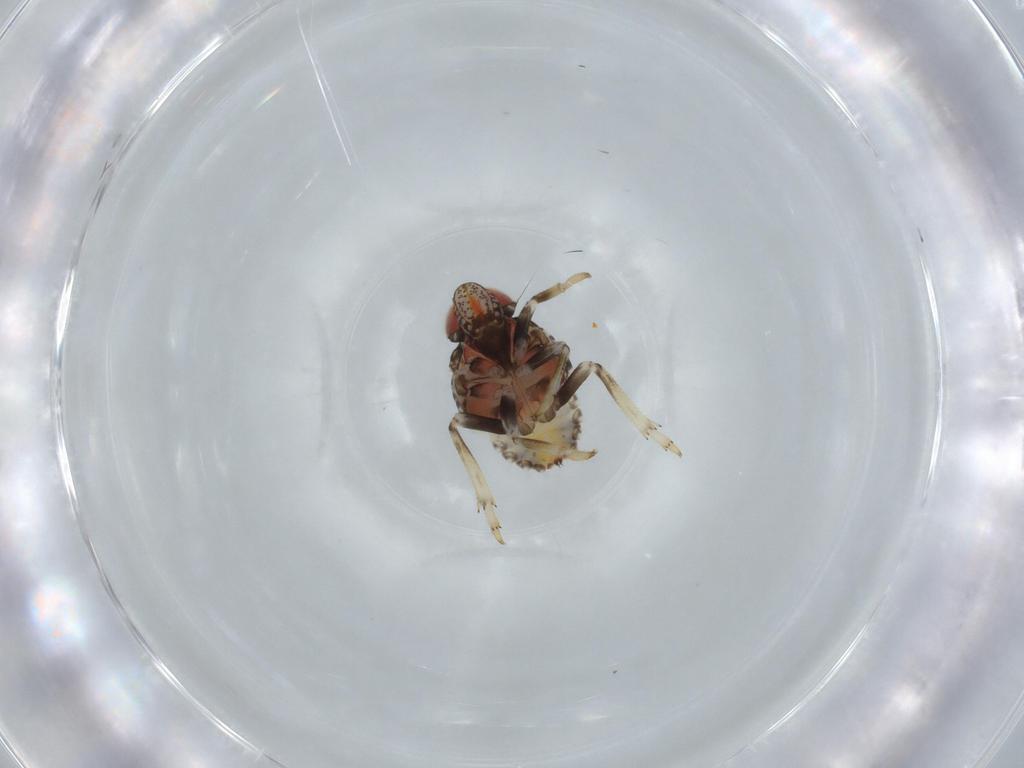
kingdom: Animalia
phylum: Arthropoda
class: Insecta
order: Hemiptera
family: Issidae
